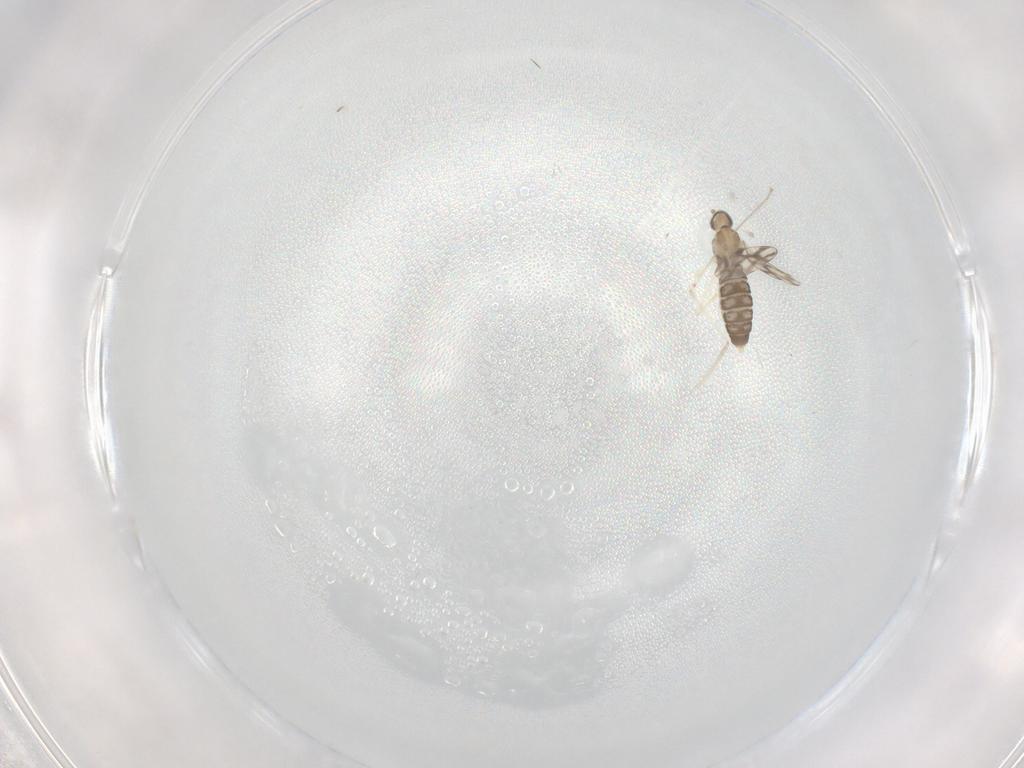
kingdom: Animalia
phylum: Arthropoda
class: Insecta
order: Diptera
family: Cecidomyiidae
